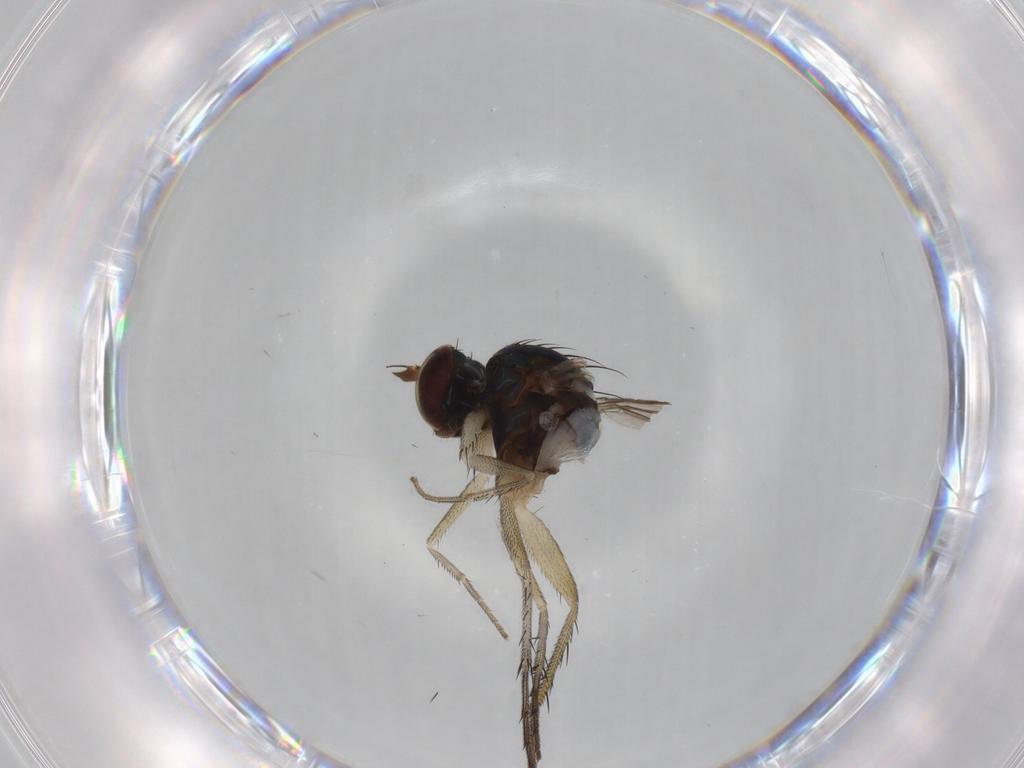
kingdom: Animalia
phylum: Arthropoda
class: Insecta
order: Diptera
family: Dolichopodidae
